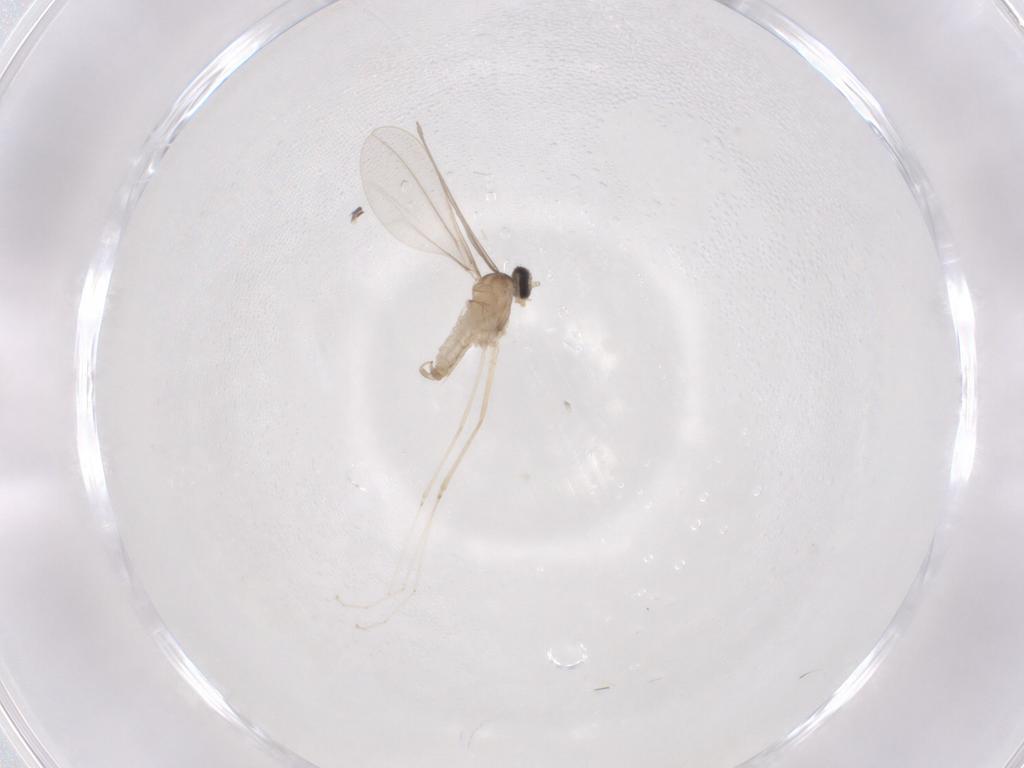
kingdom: Animalia
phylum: Arthropoda
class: Insecta
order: Diptera
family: Cecidomyiidae
